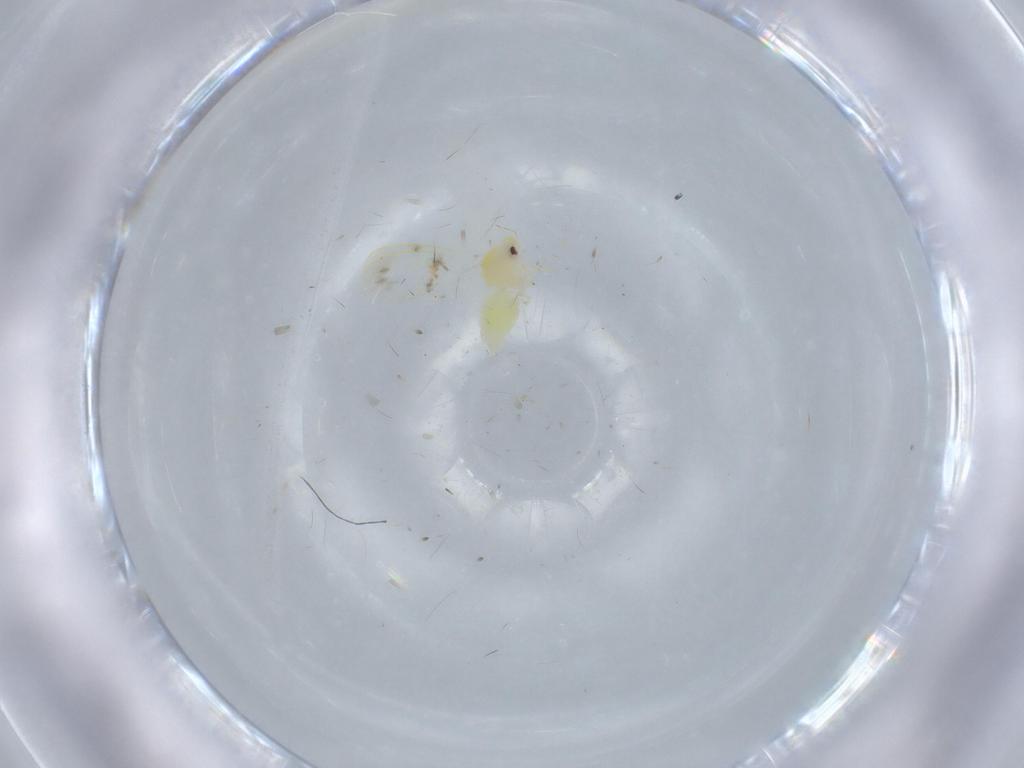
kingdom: Animalia
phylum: Arthropoda
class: Insecta
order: Hemiptera
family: Aleyrodidae
